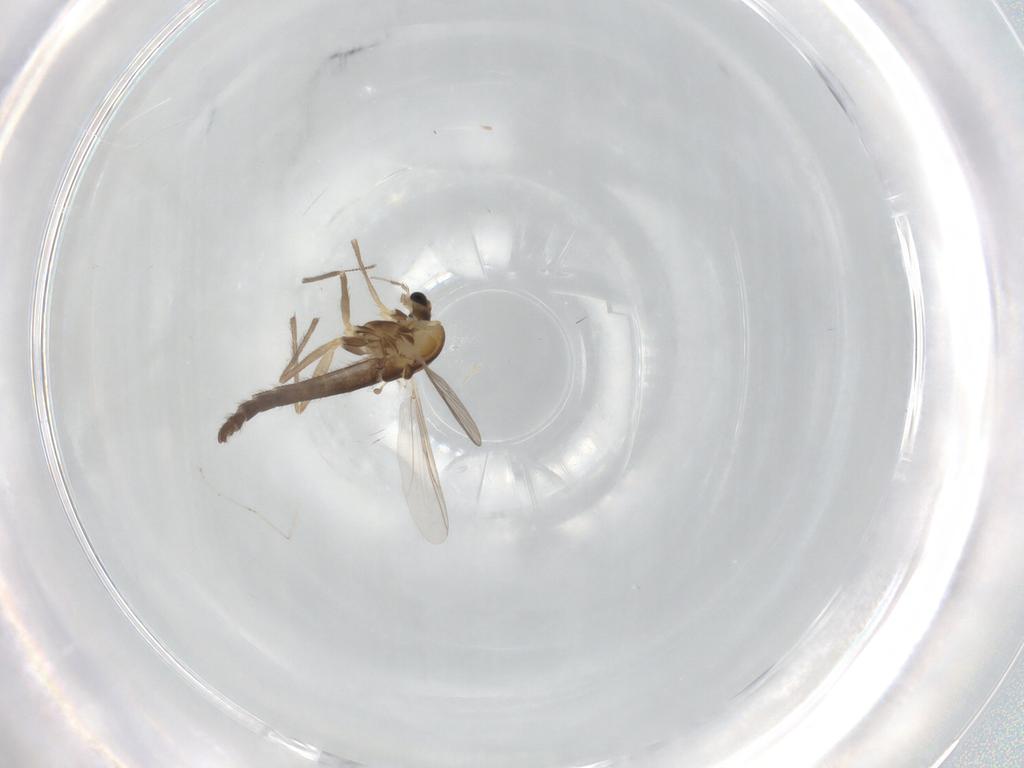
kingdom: Animalia
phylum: Arthropoda
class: Insecta
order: Diptera
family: Chironomidae
